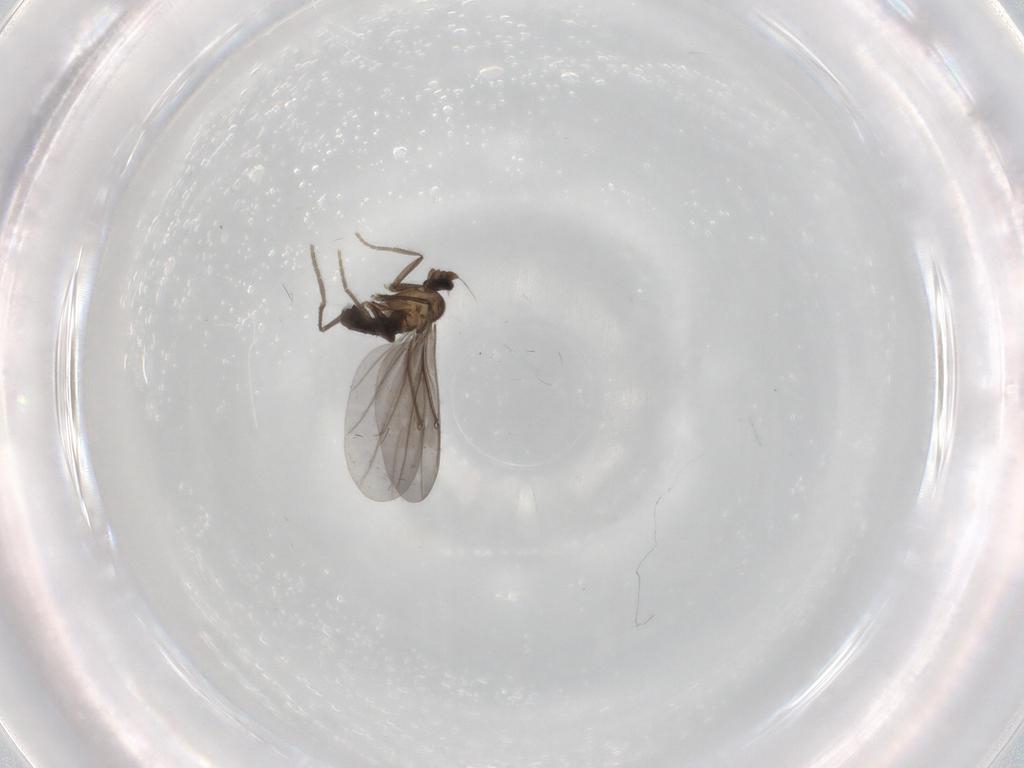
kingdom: Animalia
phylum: Arthropoda
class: Insecta
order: Diptera
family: Phoridae
